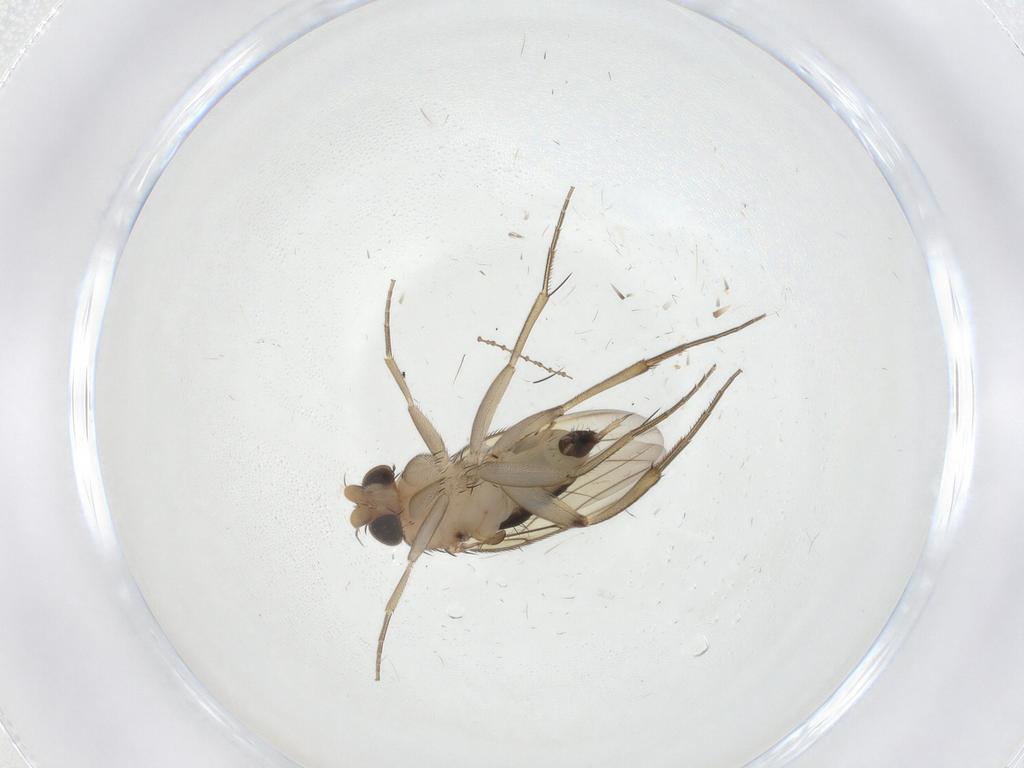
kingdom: Animalia
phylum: Arthropoda
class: Insecta
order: Diptera
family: Phoridae
